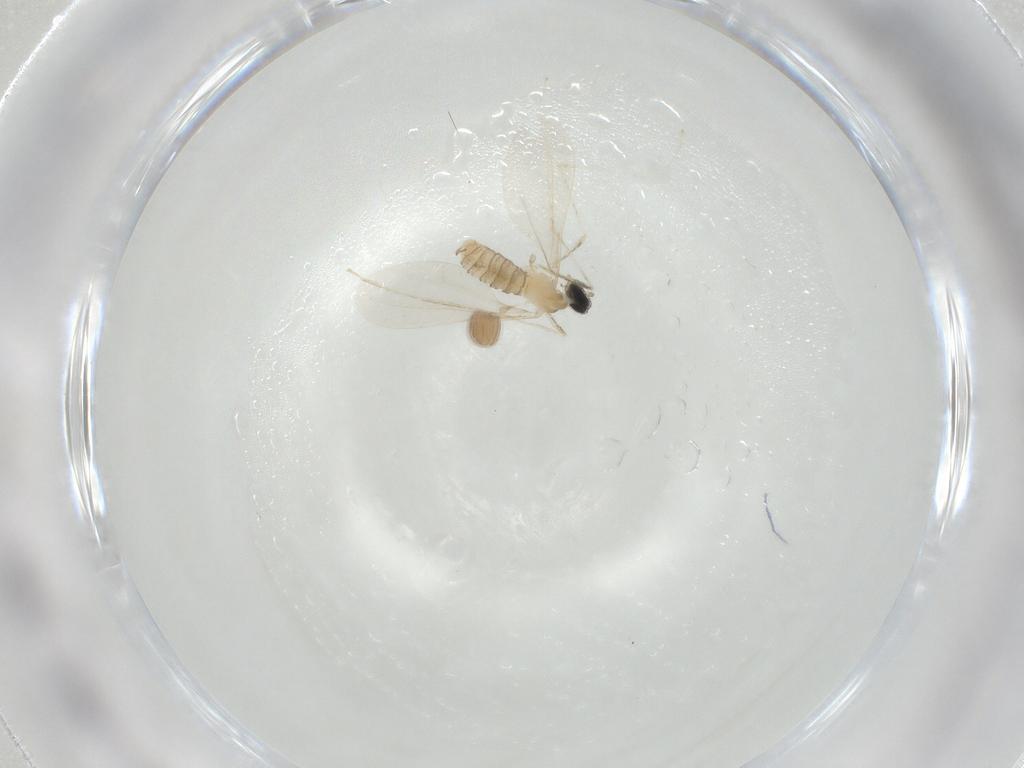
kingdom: Animalia
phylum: Arthropoda
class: Insecta
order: Diptera
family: Cecidomyiidae
